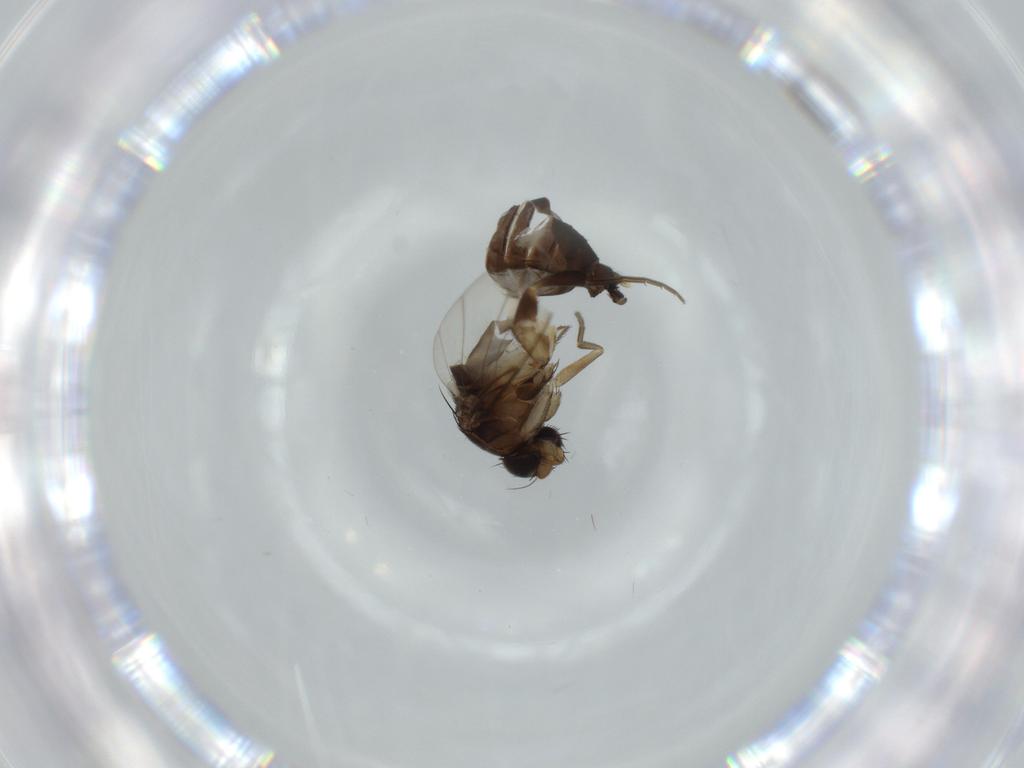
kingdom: Animalia
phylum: Arthropoda
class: Insecta
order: Diptera
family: Phoridae
